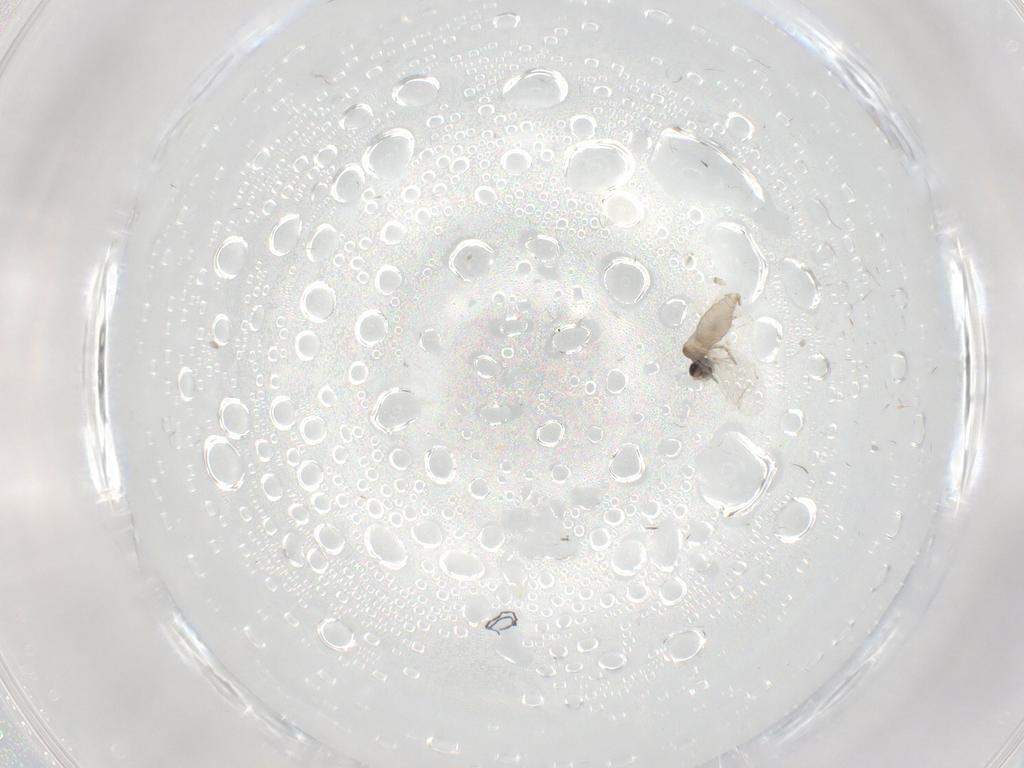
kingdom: Animalia
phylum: Arthropoda
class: Insecta
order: Diptera
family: Cecidomyiidae
